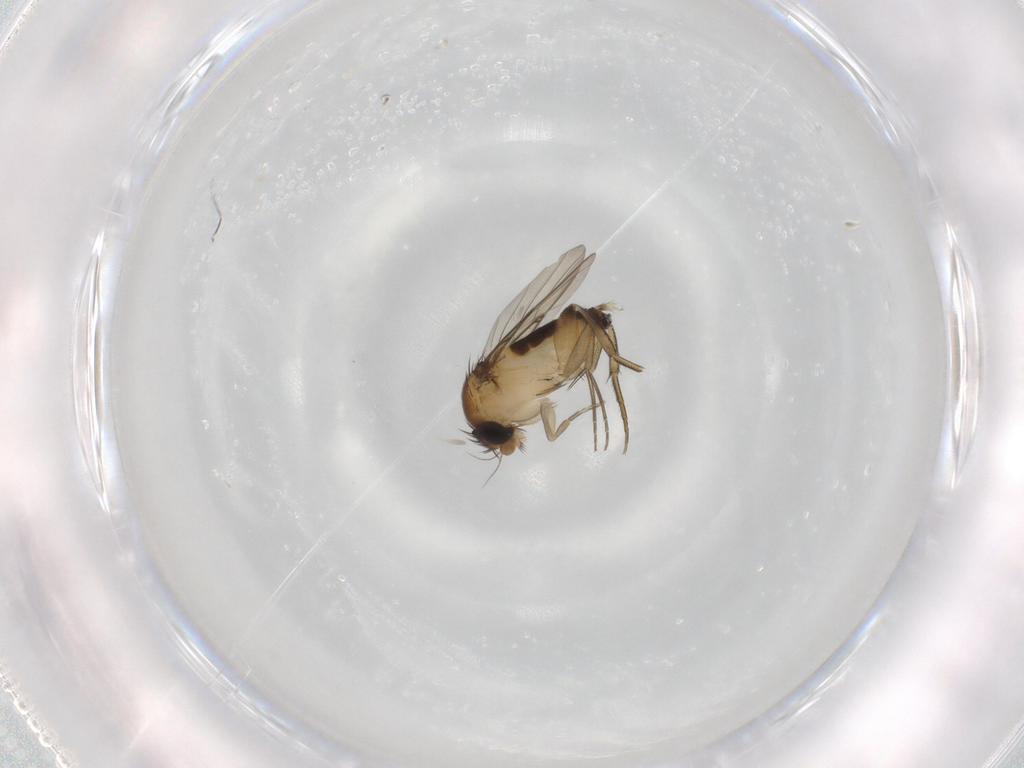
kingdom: Animalia
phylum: Arthropoda
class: Insecta
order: Diptera
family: Phoridae
